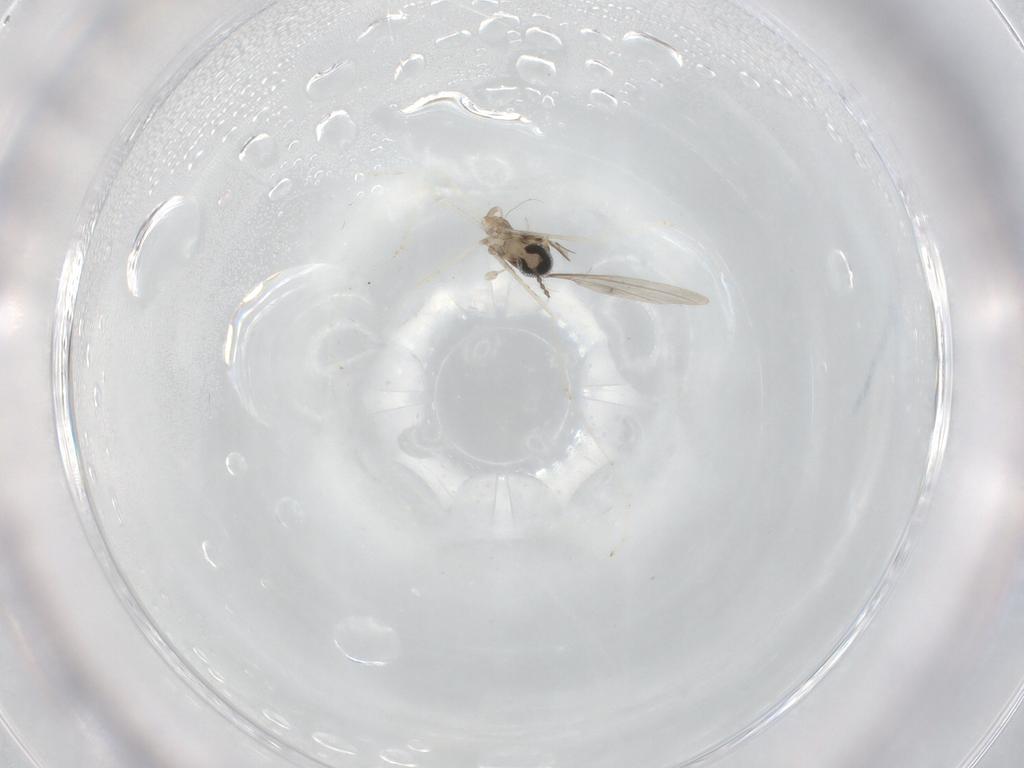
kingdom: Animalia
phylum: Arthropoda
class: Insecta
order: Diptera
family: Cecidomyiidae
